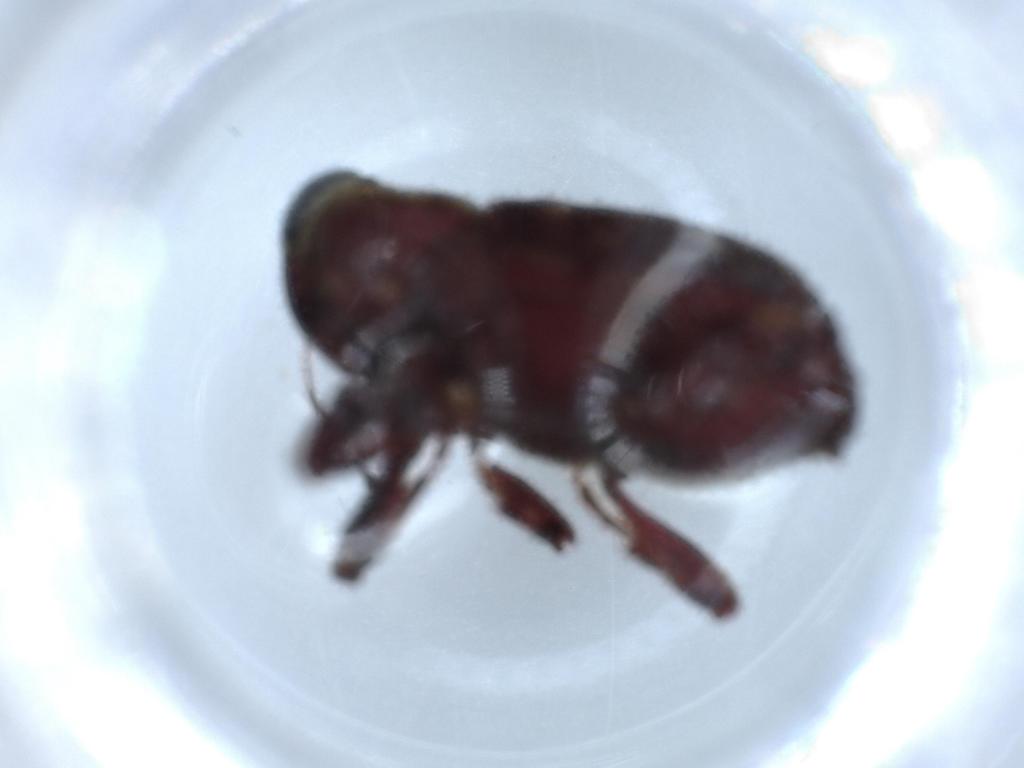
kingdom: Animalia
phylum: Arthropoda
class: Insecta
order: Coleoptera
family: Curculionidae
